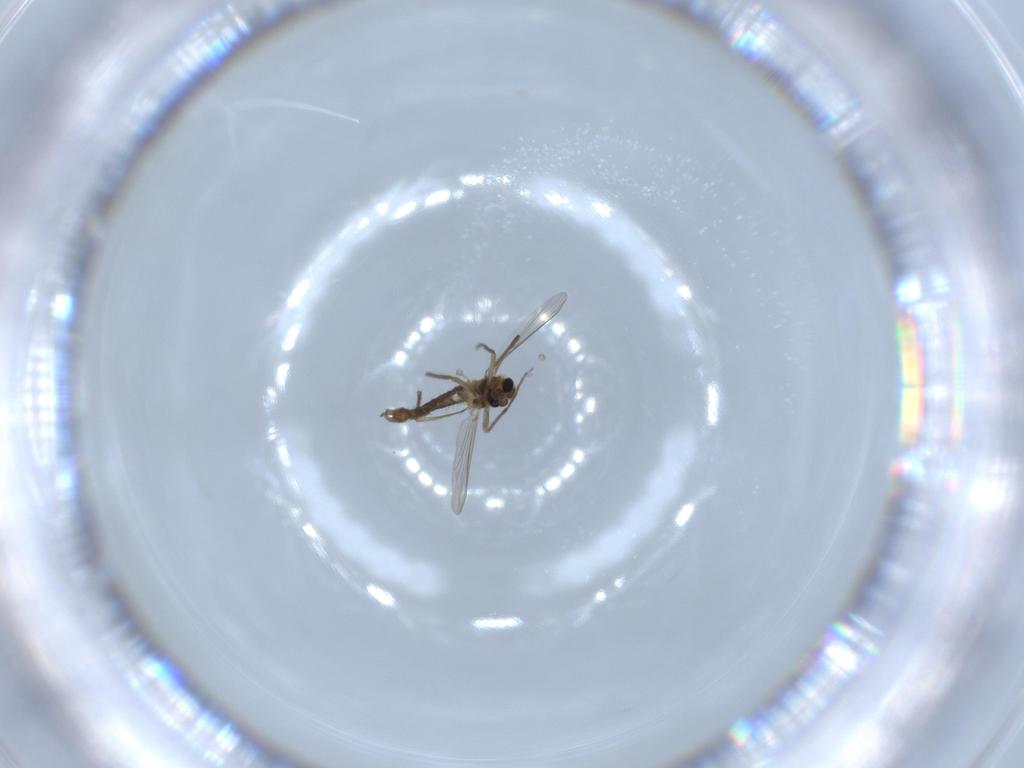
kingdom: Animalia
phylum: Arthropoda
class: Insecta
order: Diptera
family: Chironomidae
